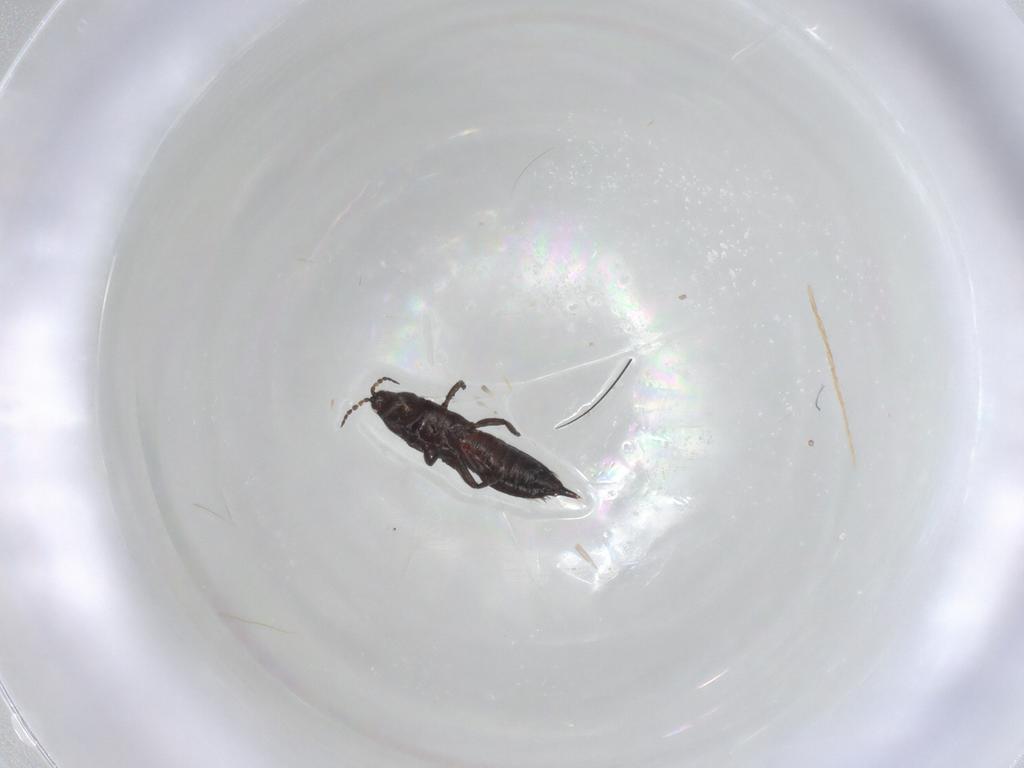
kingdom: Animalia
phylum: Arthropoda
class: Insecta
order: Thysanoptera
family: Phlaeothripidae
